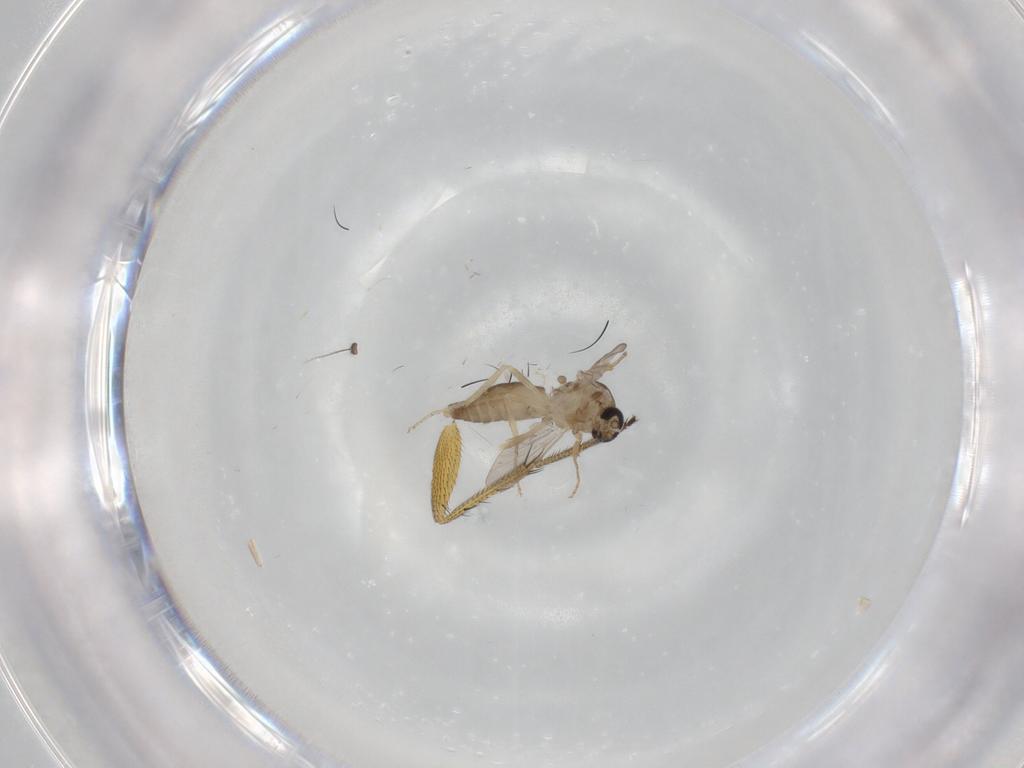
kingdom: Animalia
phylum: Arthropoda
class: Insecta
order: Diptera
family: Ceratopogonidae
